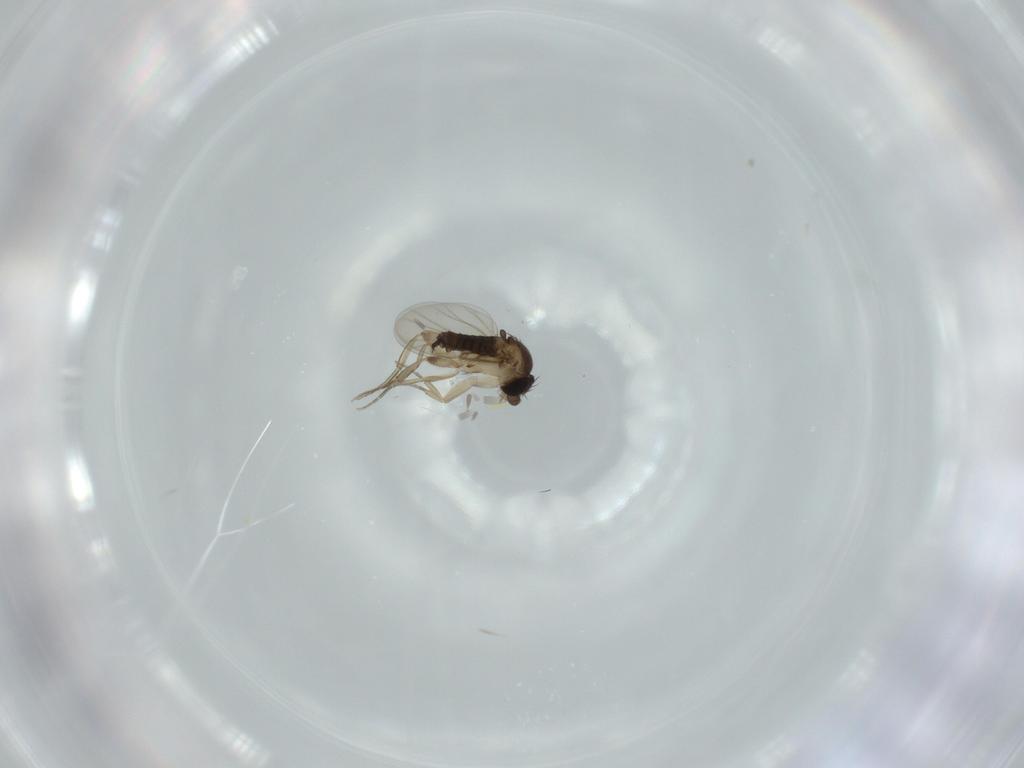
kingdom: Animalia
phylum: Arthropoda
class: Insecta
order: Diptera
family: Phoridae
